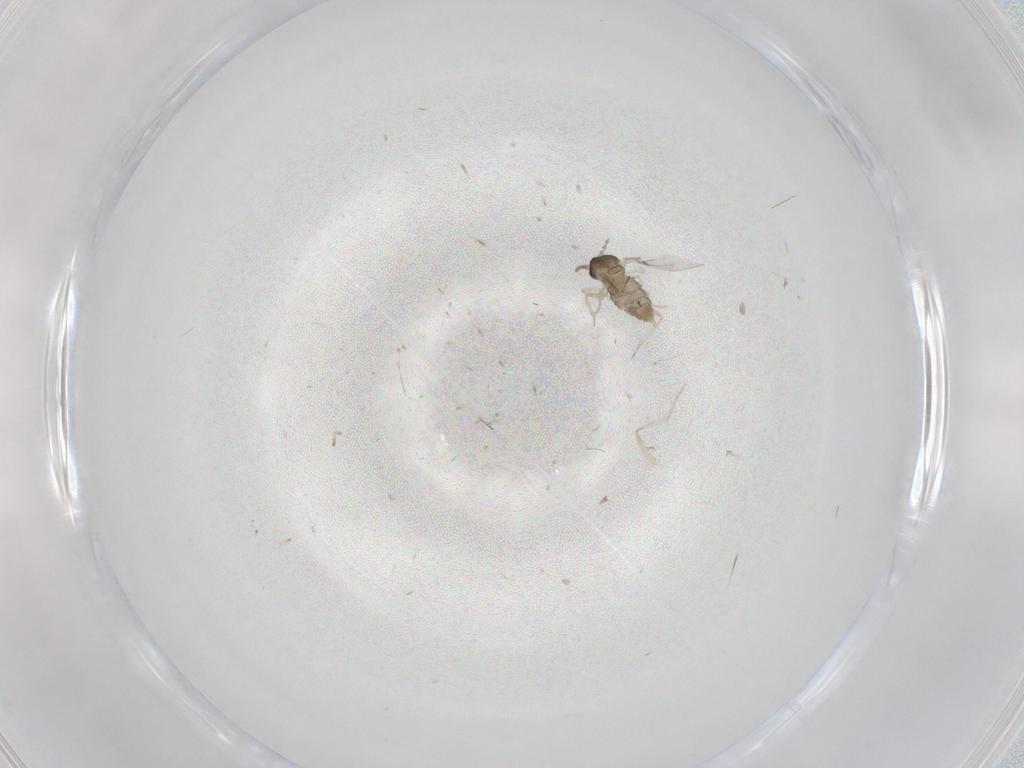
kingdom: Animalia
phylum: Arthropoda
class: Insecta
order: Diptera
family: Cecidomyiidae
